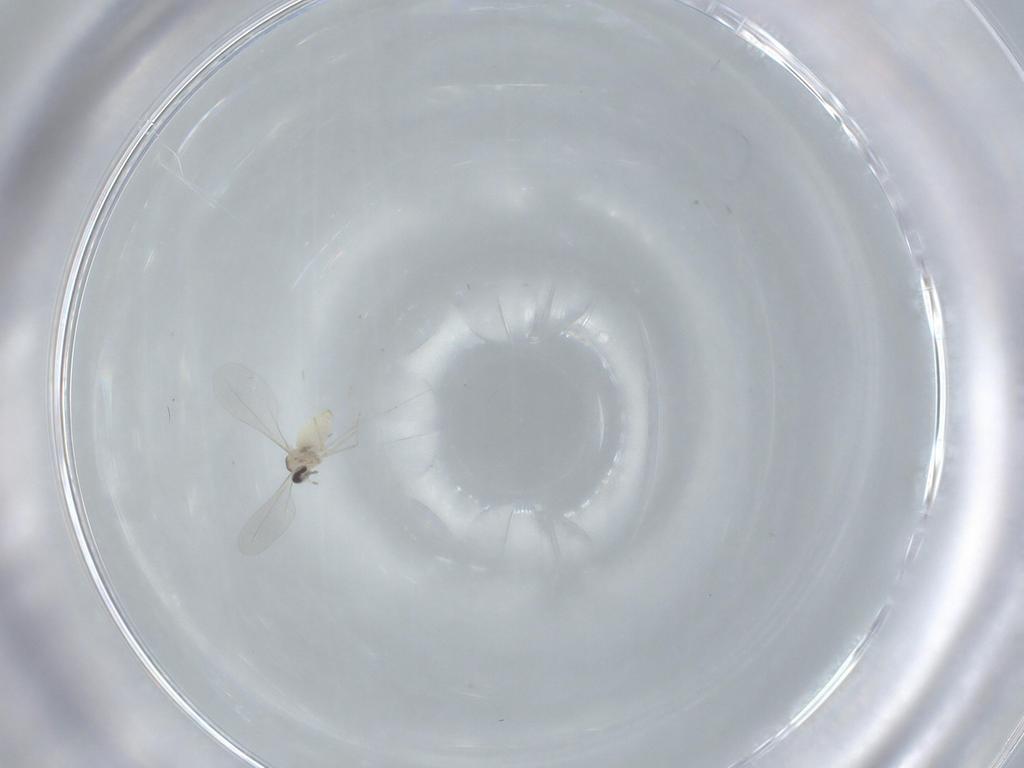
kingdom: Animalia
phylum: Arthropoda
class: Insecta
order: Diptera
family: Cecidomyiidae
